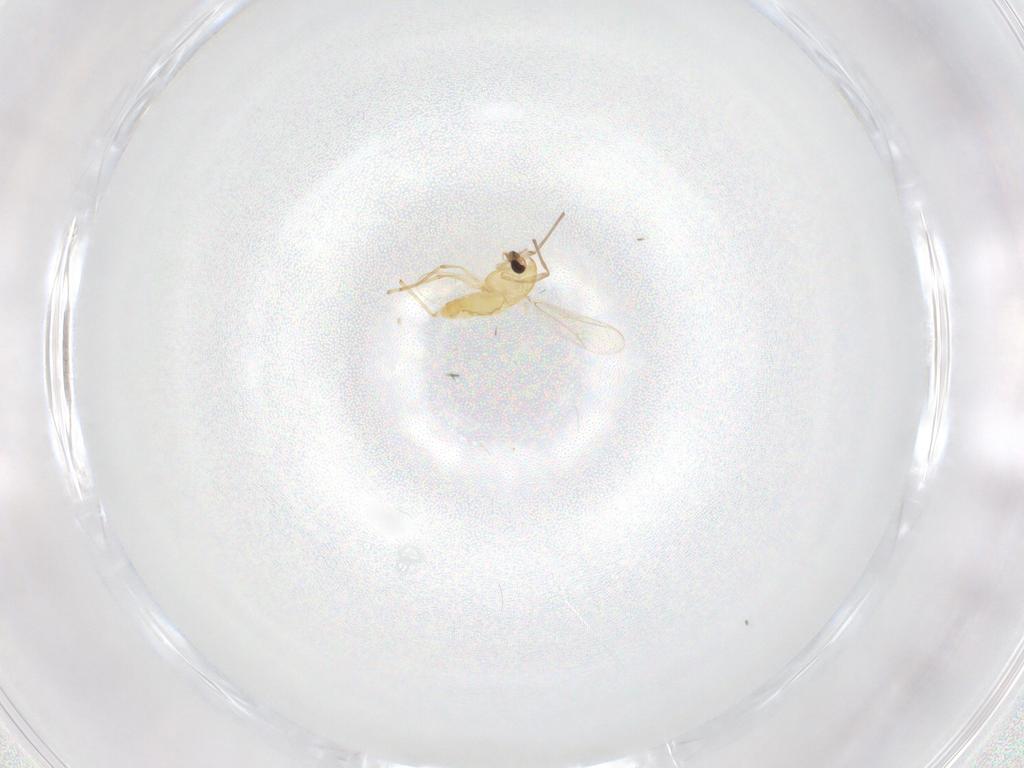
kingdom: Animalia
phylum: Arthropoda
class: Insecta
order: Diptera
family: Chironomidae
